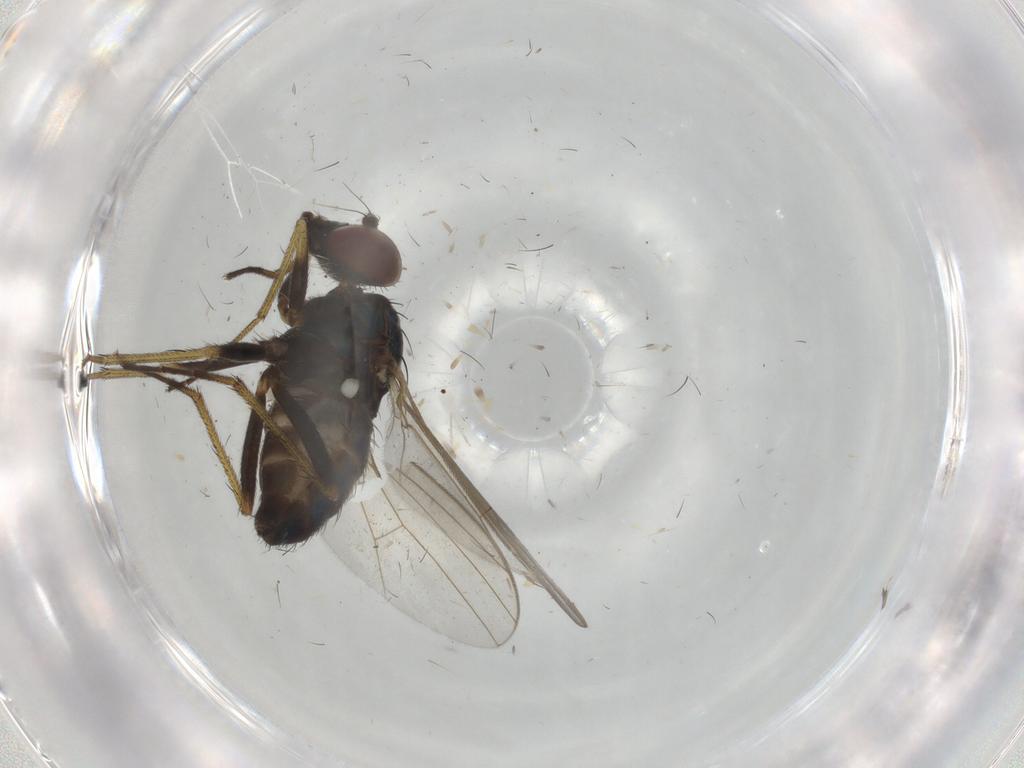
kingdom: Animalia
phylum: Arthropoda
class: Insecta
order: Diptera
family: Dolichopodidae
